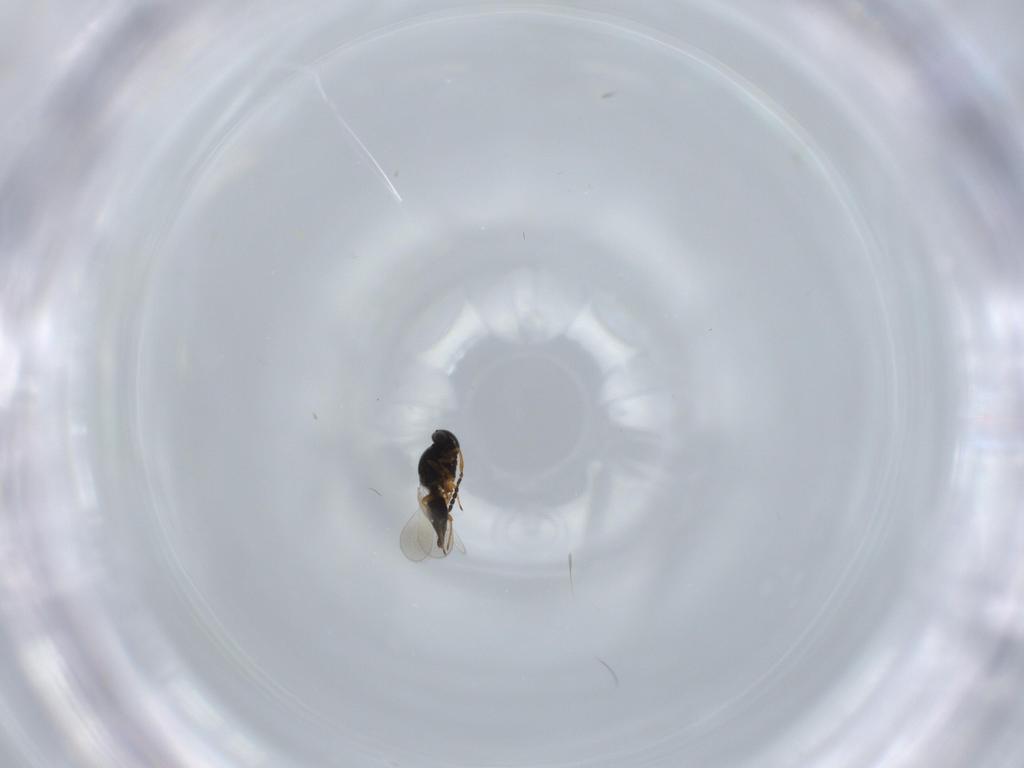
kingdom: Animalia
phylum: Arthropoda
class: Insecta
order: Hymenoptera
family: Platygastridae
